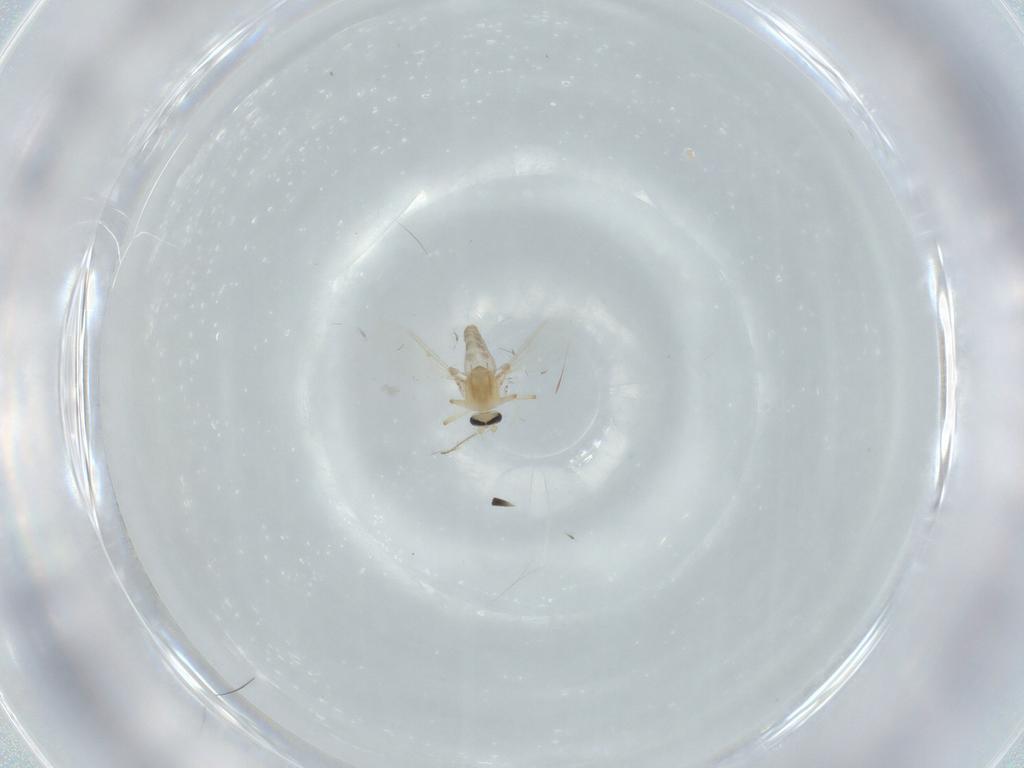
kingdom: Animalia
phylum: Arthropoda
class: Insecta
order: Diptera
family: Ceratopogonidae
